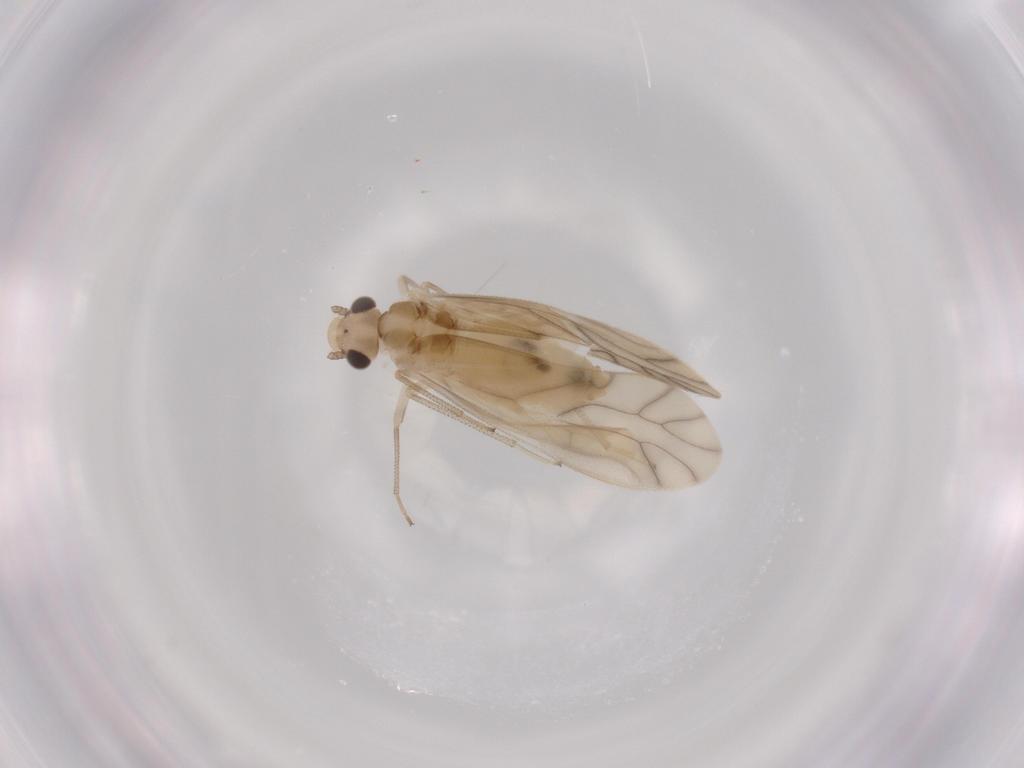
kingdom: Animalia
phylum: Arthropoda
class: Insecta
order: Psocodea
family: Caeciliusidae
